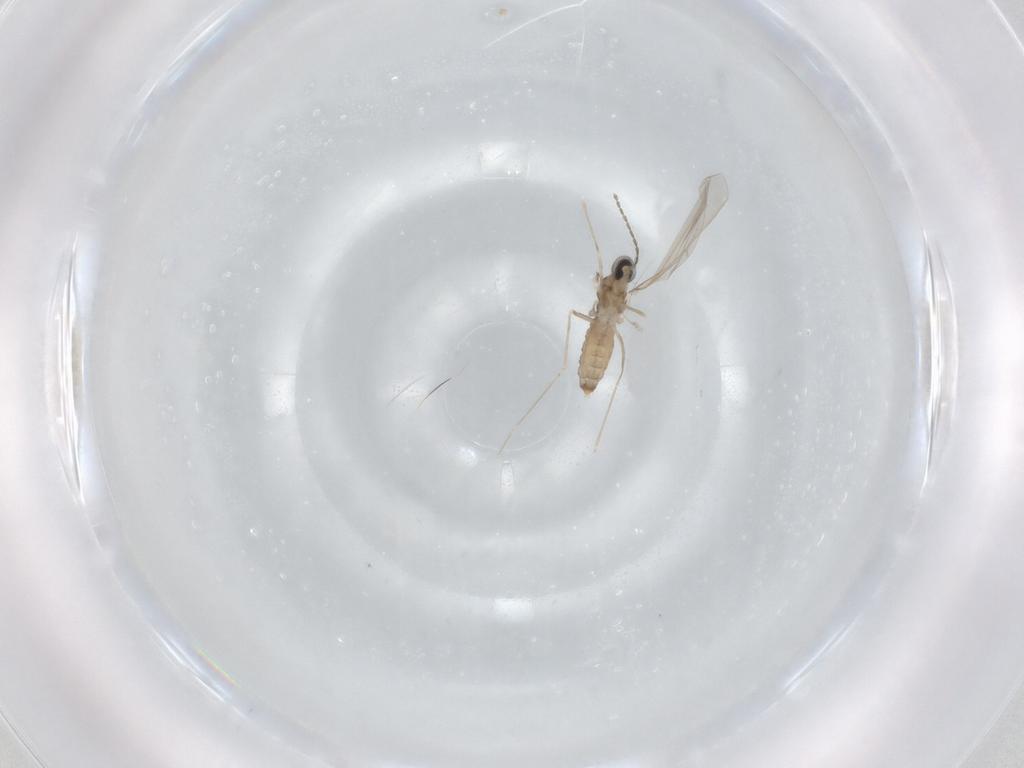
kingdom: Animalia
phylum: Arthropoda
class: Insecta
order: Diptera
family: Cecidomyiidae
